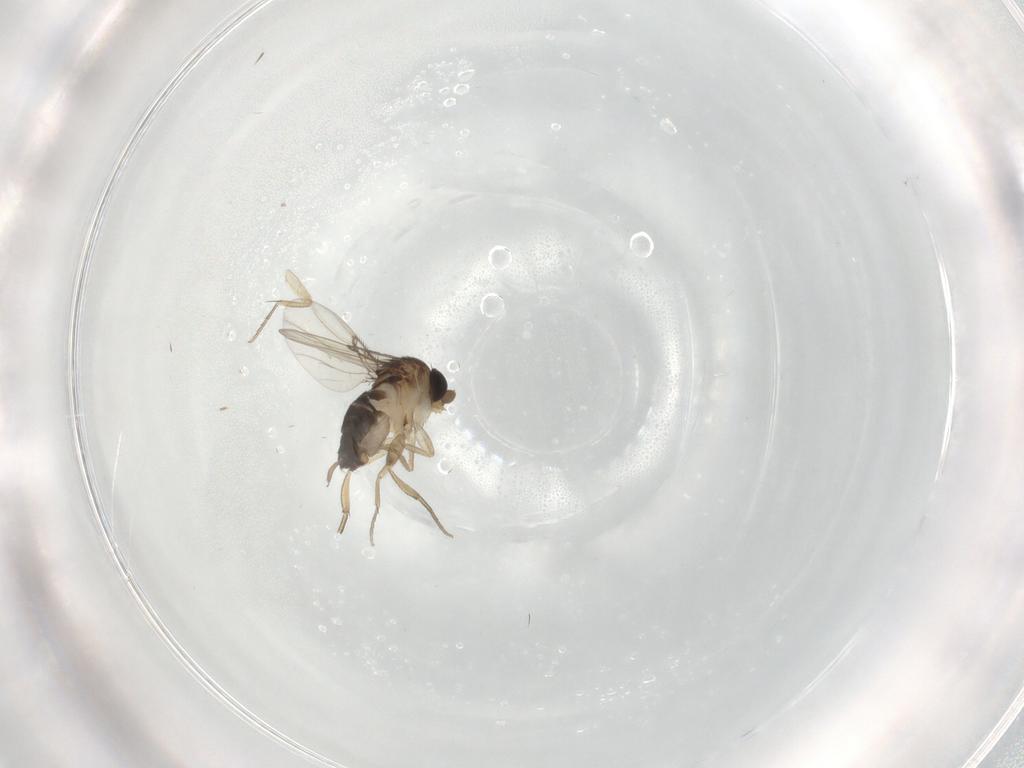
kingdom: Animalia
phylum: Arthropoda
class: Insecta
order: Diptera
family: Phoridae
